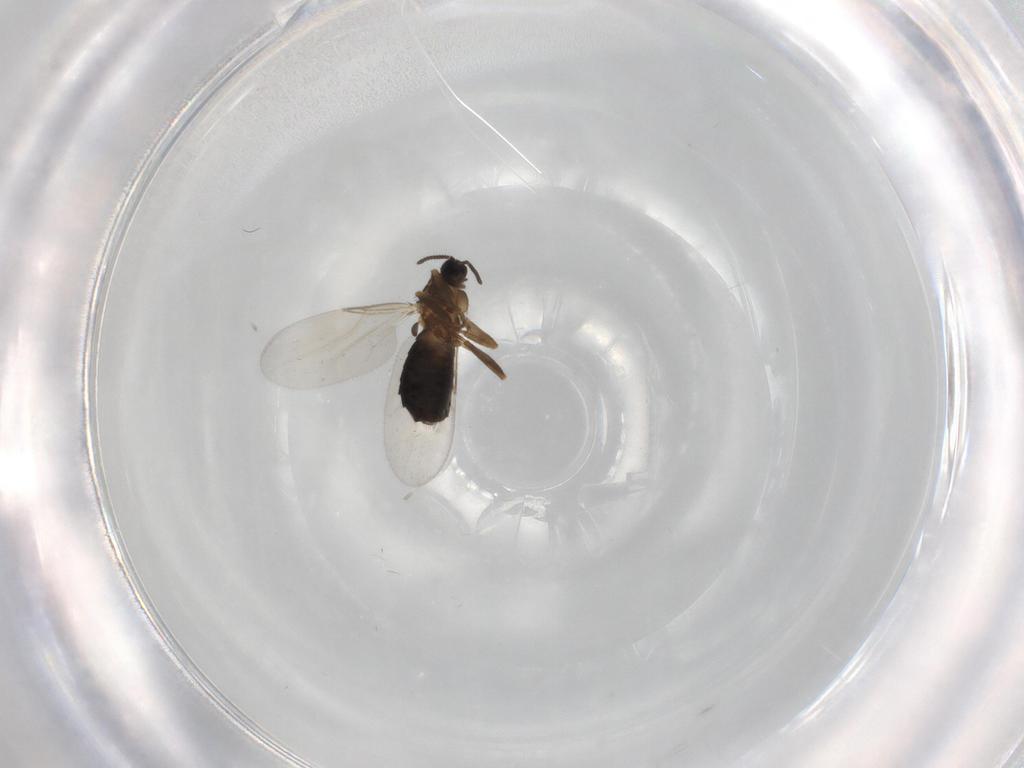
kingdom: Animalia
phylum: Arthropoda
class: Insecta
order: Diptera
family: Scatopsidae
